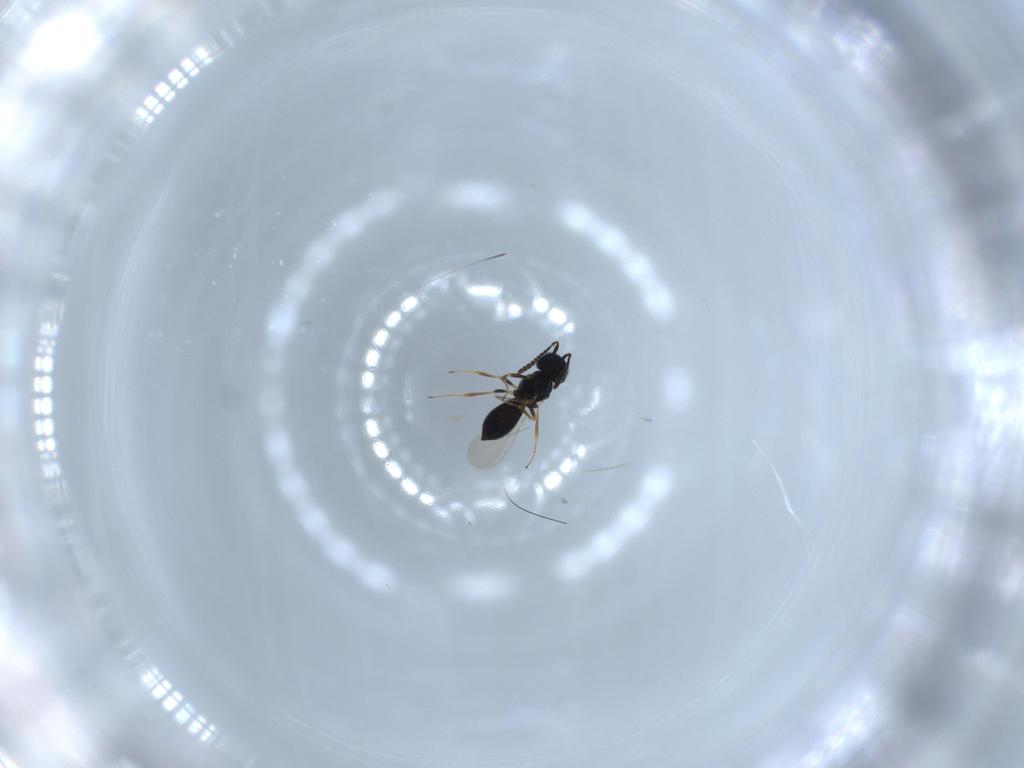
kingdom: Animalia
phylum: Arthropoda
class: Insecta
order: Hymenoptera
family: Scelionidae
